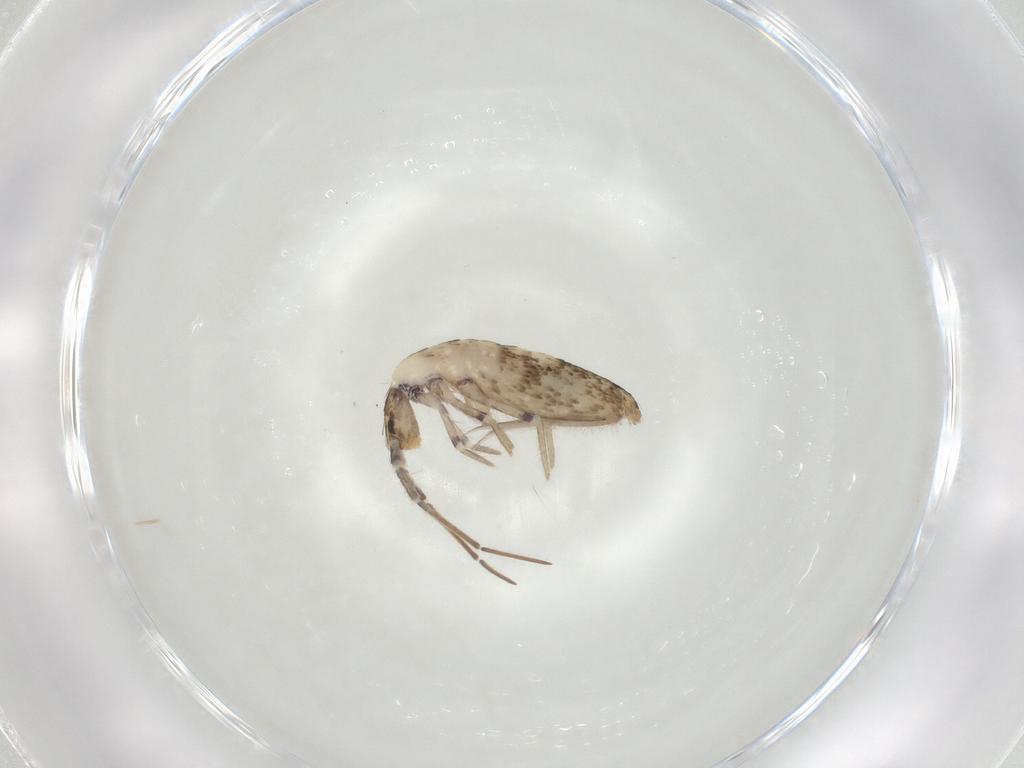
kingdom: Animalia
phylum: Arthropoda
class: Collembola
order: Entomobryomorpha
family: Entomobryidae
